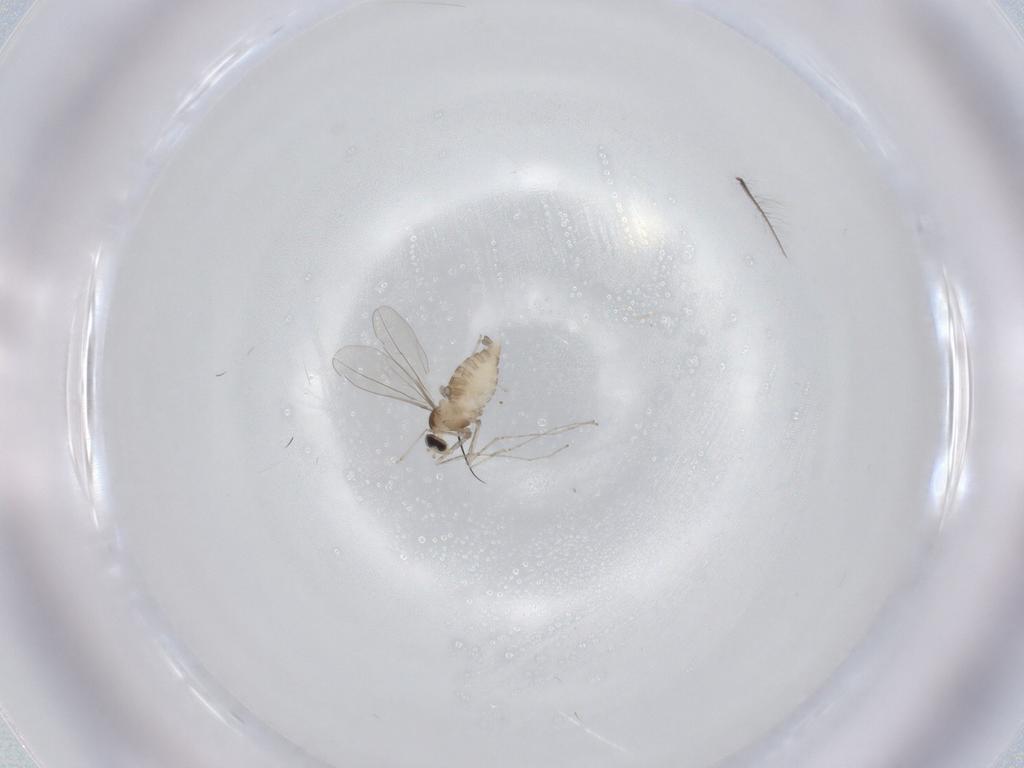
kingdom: Animalia
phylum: Arthropoda
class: Insecta
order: Diptera
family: Cecidomyiidae
